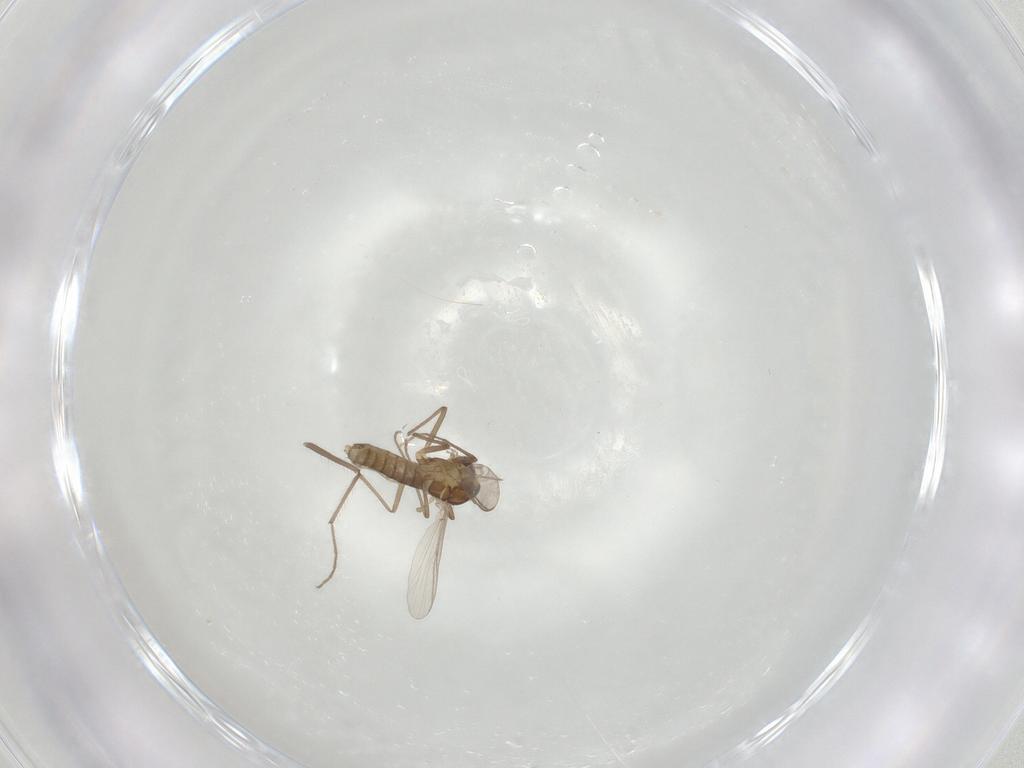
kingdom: Animalia
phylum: Arthropoda
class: Insecta
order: Diptera
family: Chironomidae
